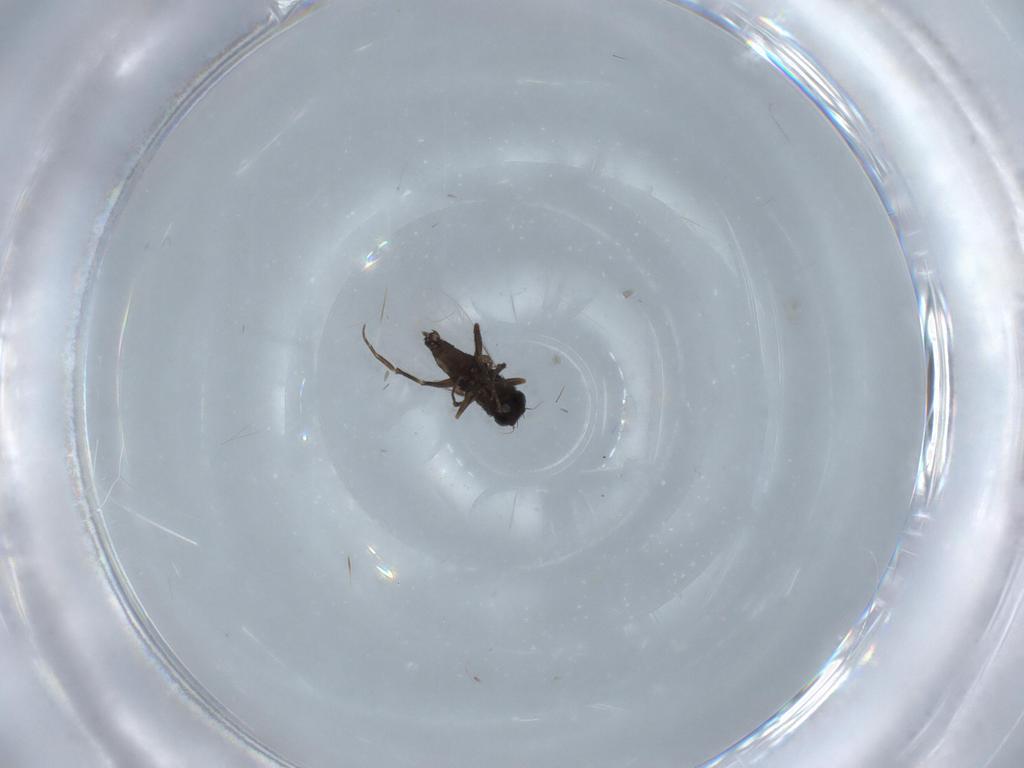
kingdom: Animalia
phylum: Arthropoda
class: Insecta
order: Diptera
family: Phoridae
